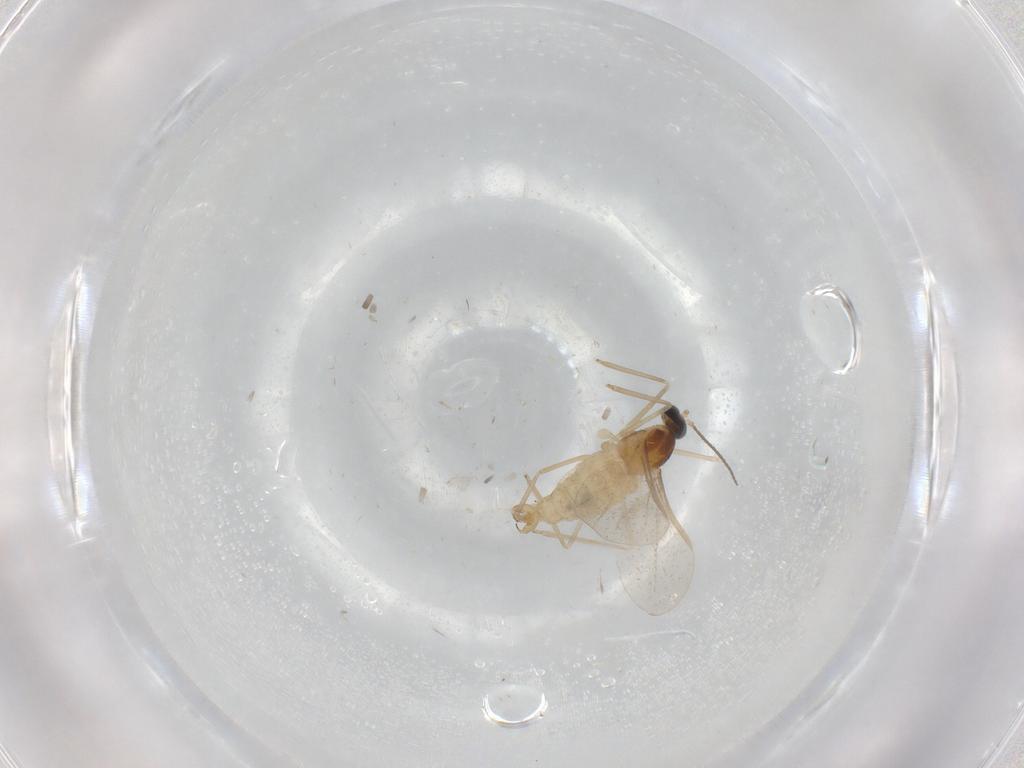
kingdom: Animalia
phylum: Arthropoda
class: Insecta
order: Diptera
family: Cecidomyiidae
